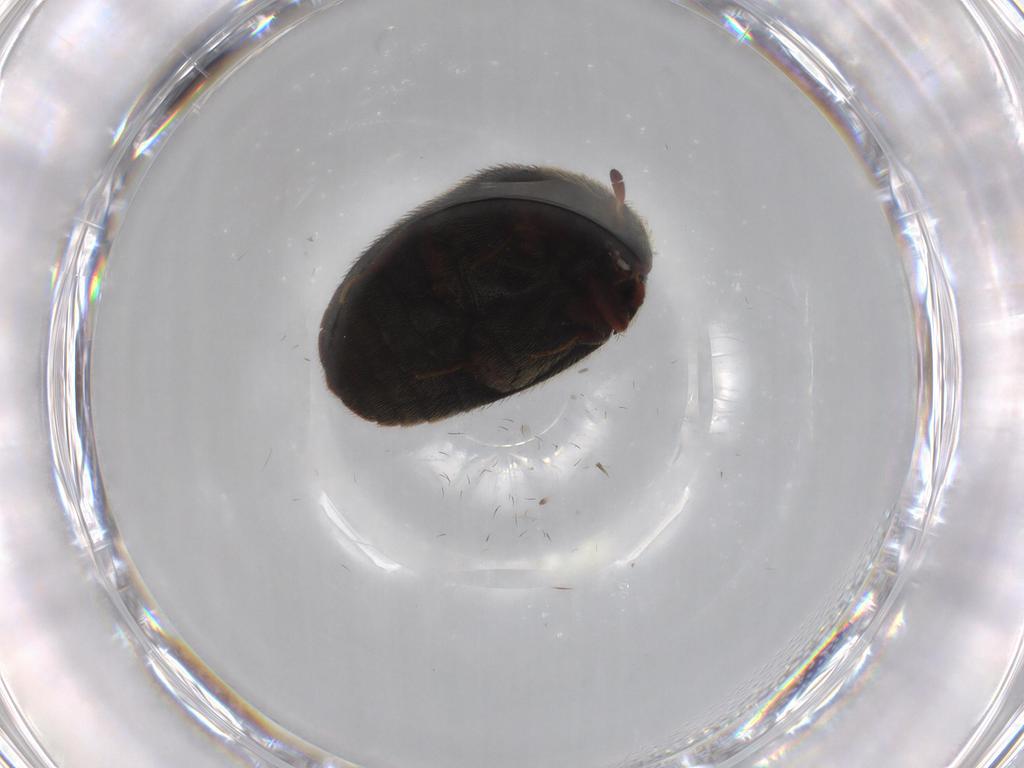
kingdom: Animalia
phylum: Arthropoda
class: Insecta
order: Coleoptera
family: Dermestidae
